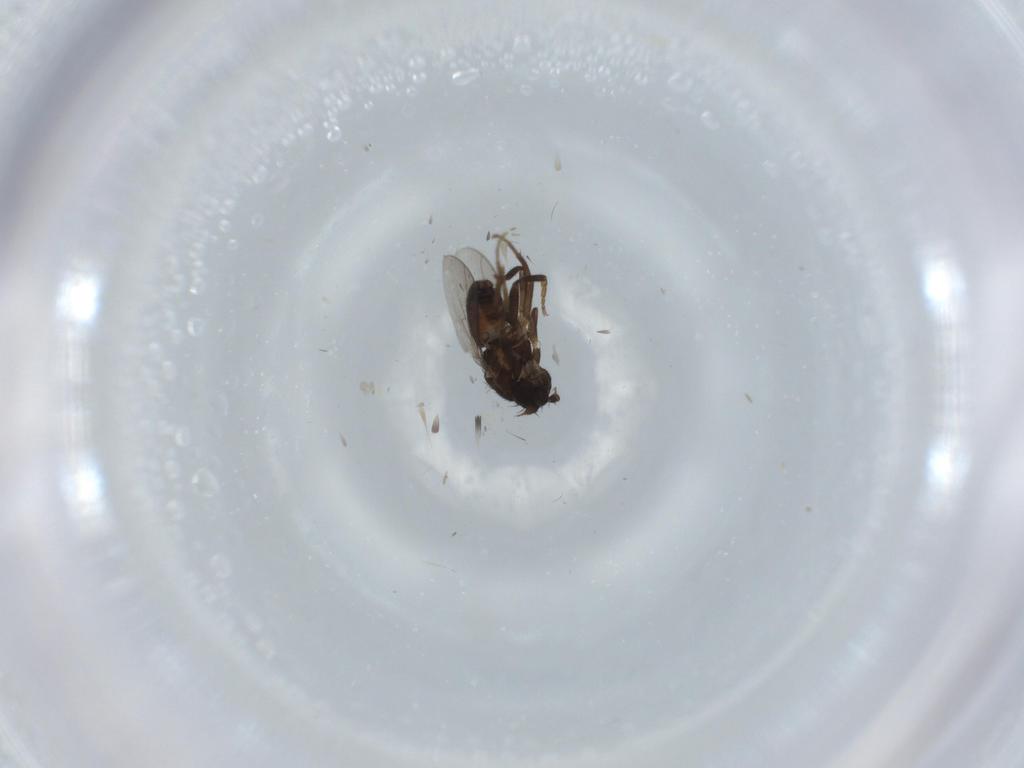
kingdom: Animalia
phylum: Arthropoda
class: Insecta
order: Diptera
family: Sphaeroceridae
